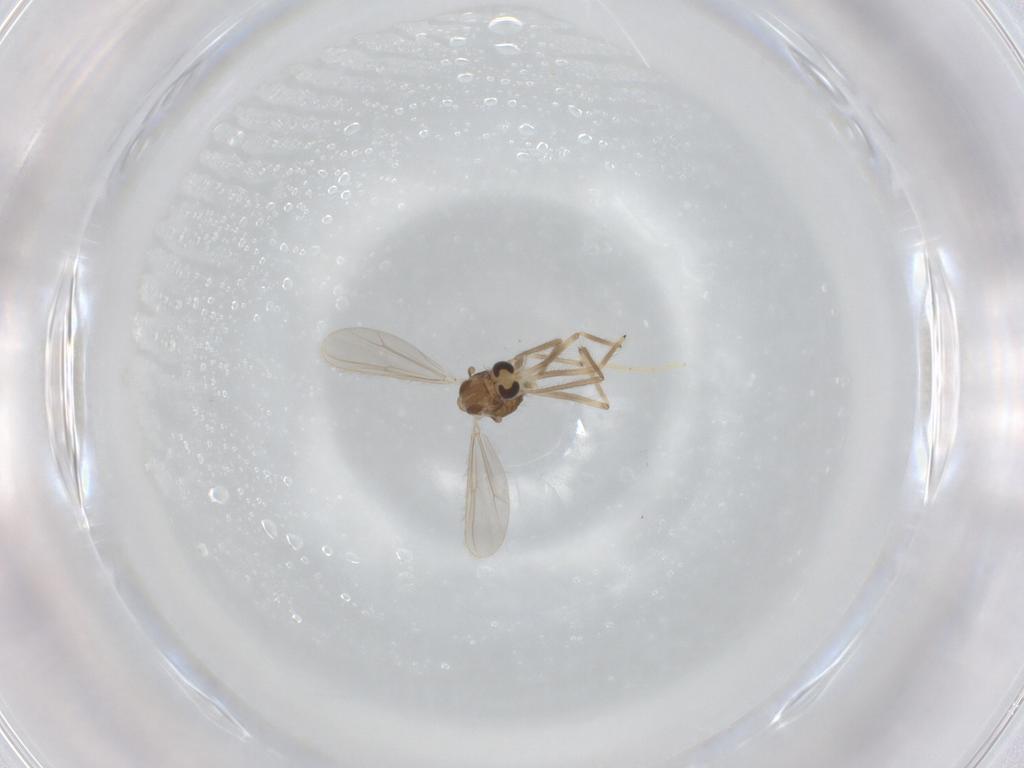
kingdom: Animalia
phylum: Arthropoda
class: Insecta
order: Diptera
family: Chironomidae
